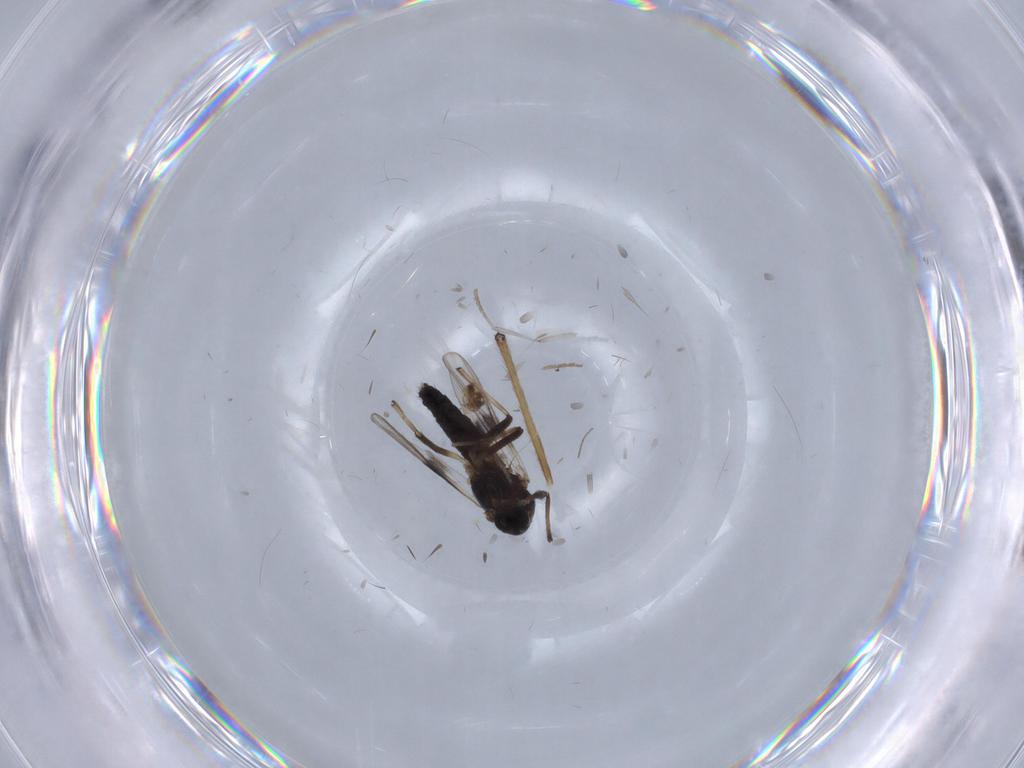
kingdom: Animalia
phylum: Arthropoda
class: Insecta
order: Diptera
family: Chironomidae
